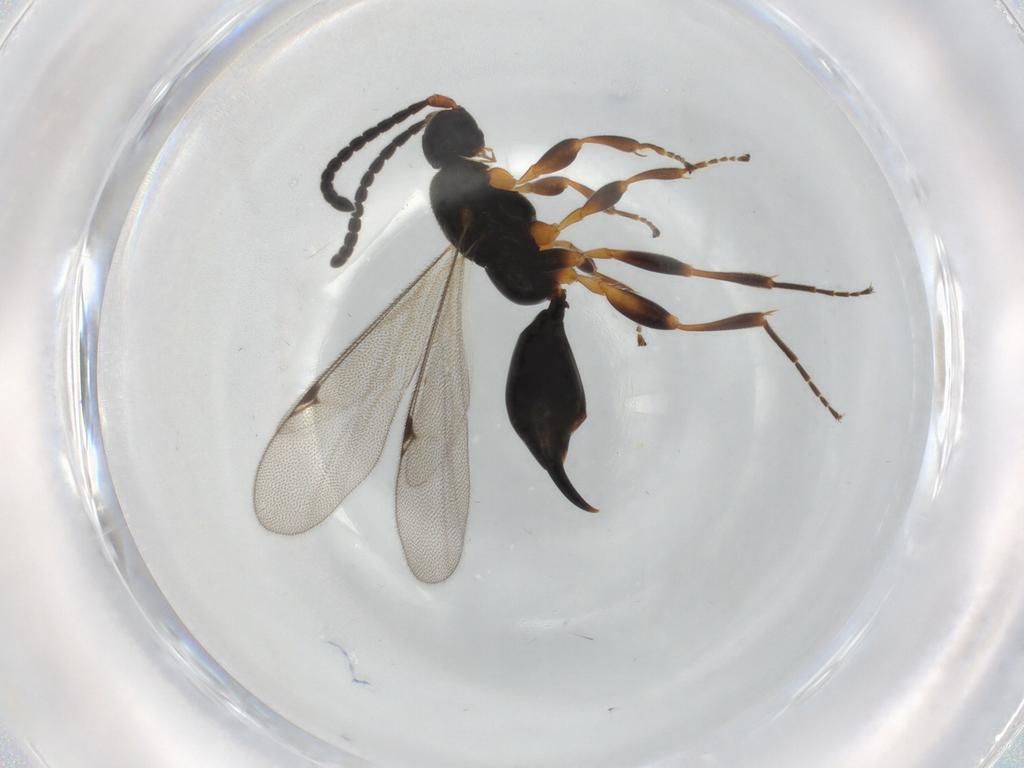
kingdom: Animalia
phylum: Arthropoda
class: Insecta
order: Hymenoptera
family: Proctotrupidae
